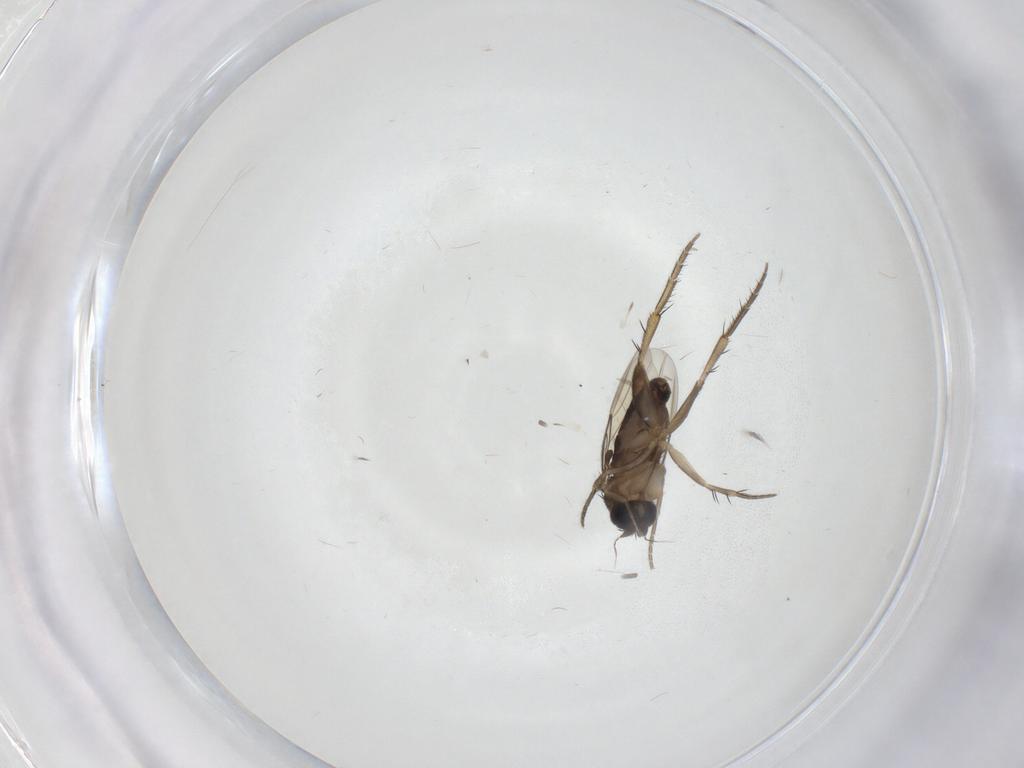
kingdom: Animalia
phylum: Arthropoda
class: Insecta
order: Diptera
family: Phoridae
